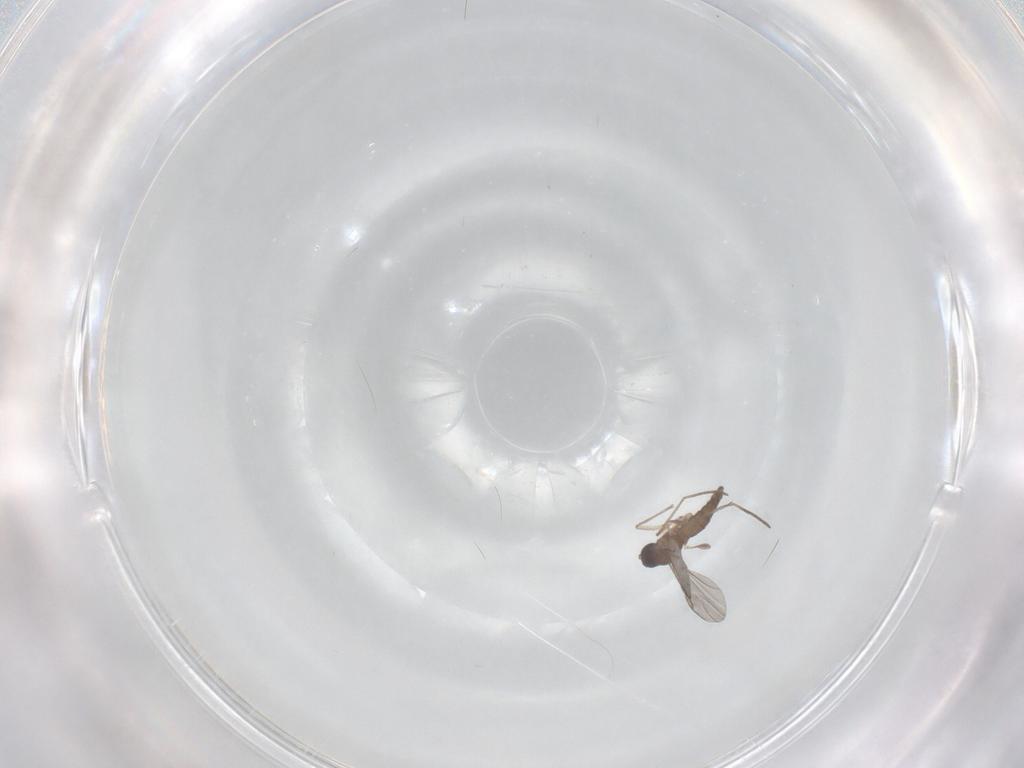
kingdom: Animalia
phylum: Arthropoda
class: Insecta
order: Diptera
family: Sciaridae
